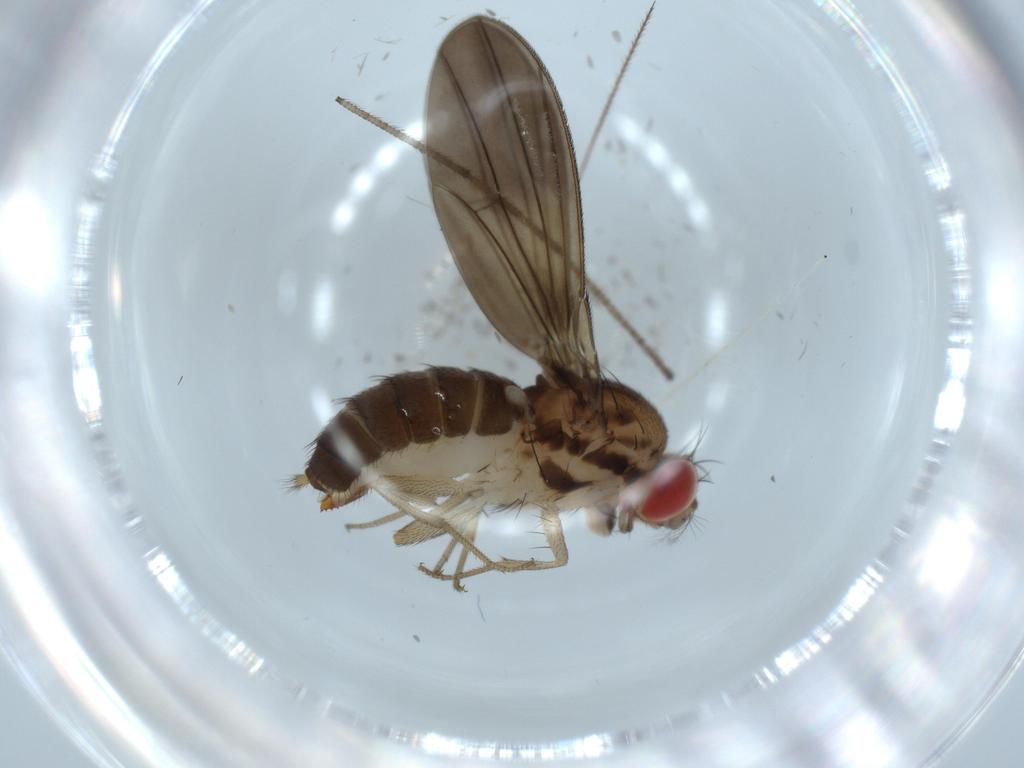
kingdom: Animalia
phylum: Arthropoda
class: Insecta
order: Diptera
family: Drosophilidae
